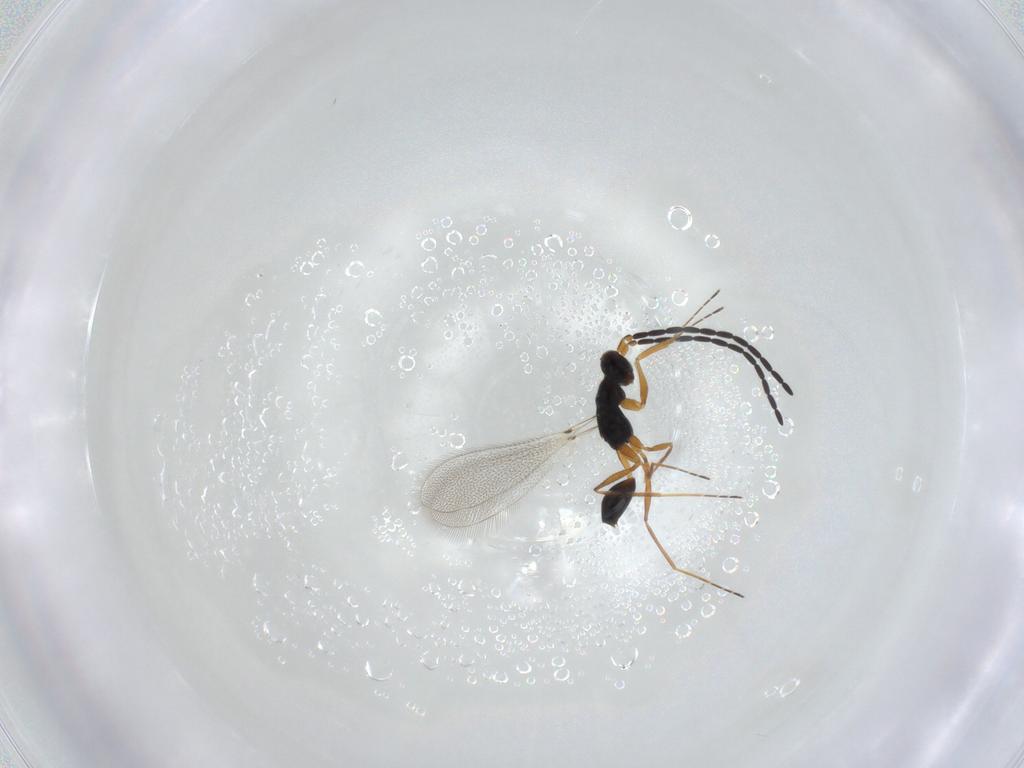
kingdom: Animalia
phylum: Arthropoda
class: Insecta
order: Hymenoptera
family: Mymaridae
